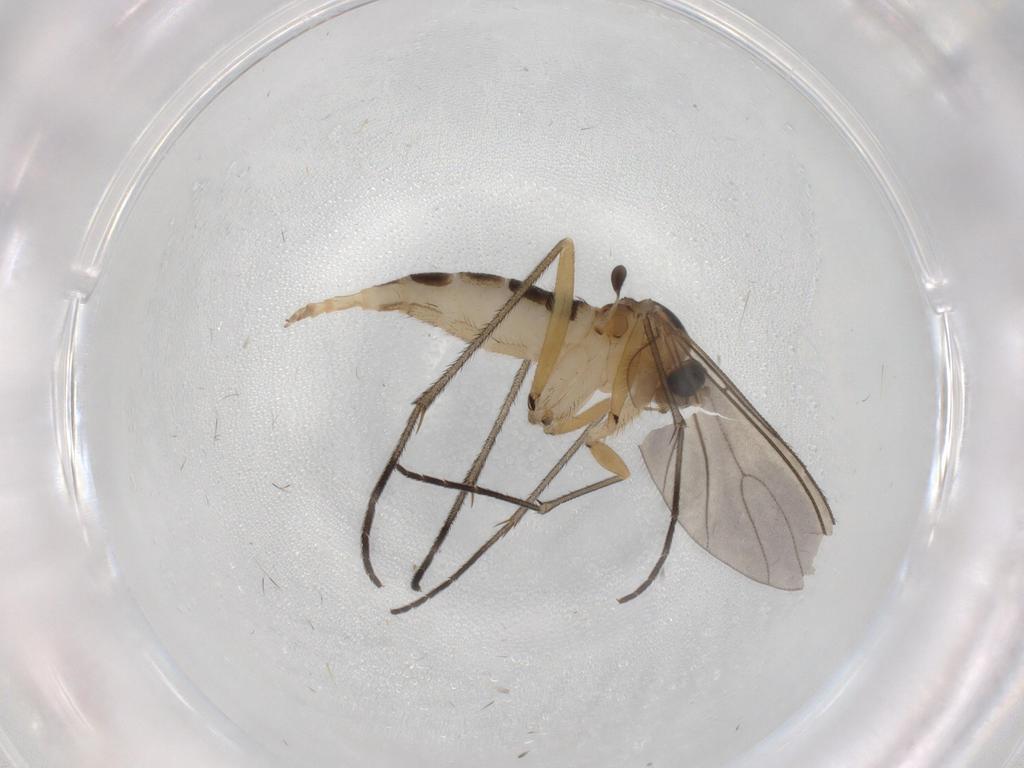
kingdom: Animalia
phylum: Arthropoda
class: Insecta
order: Diptera
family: Sciaridae
